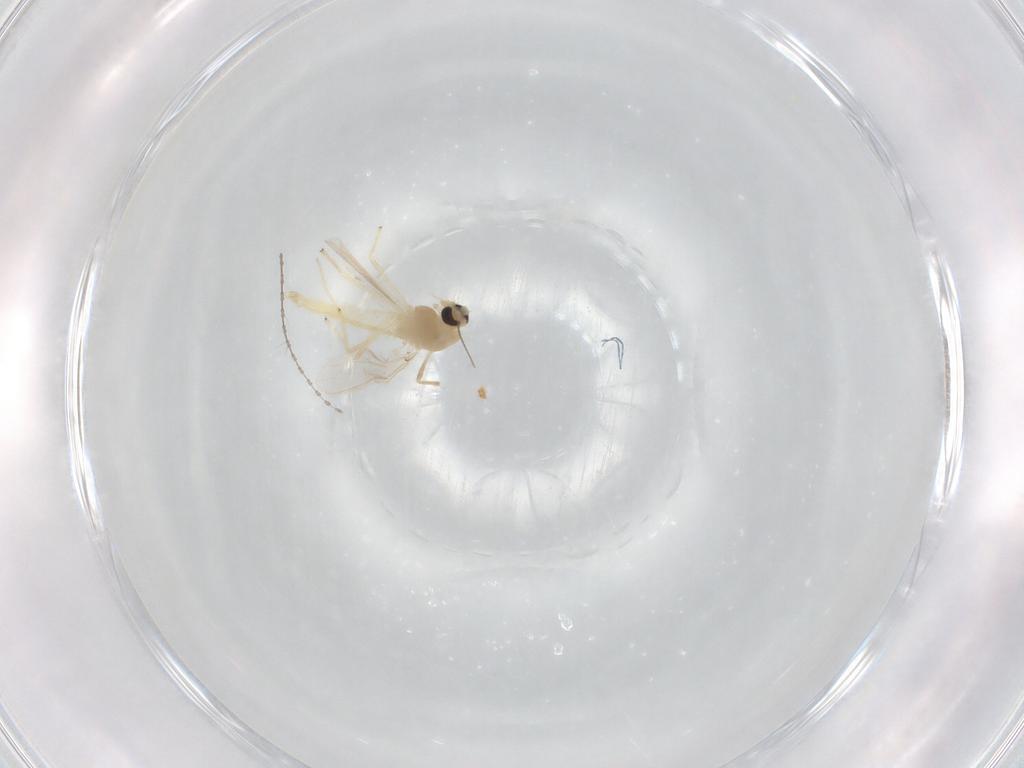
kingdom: Animalia
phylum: Arthropoda
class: Insecta
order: Diptera
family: Chironomidae
